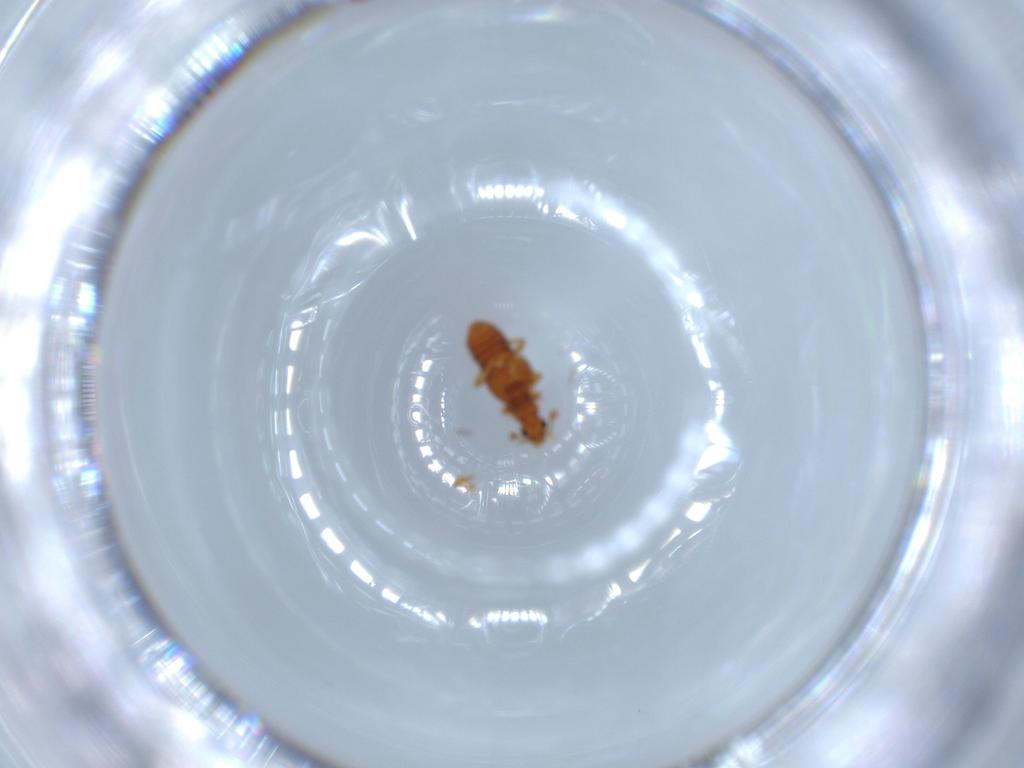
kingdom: Animalia
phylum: Arthropoda
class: Insecta
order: Coleoptera
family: Staphylinidae
